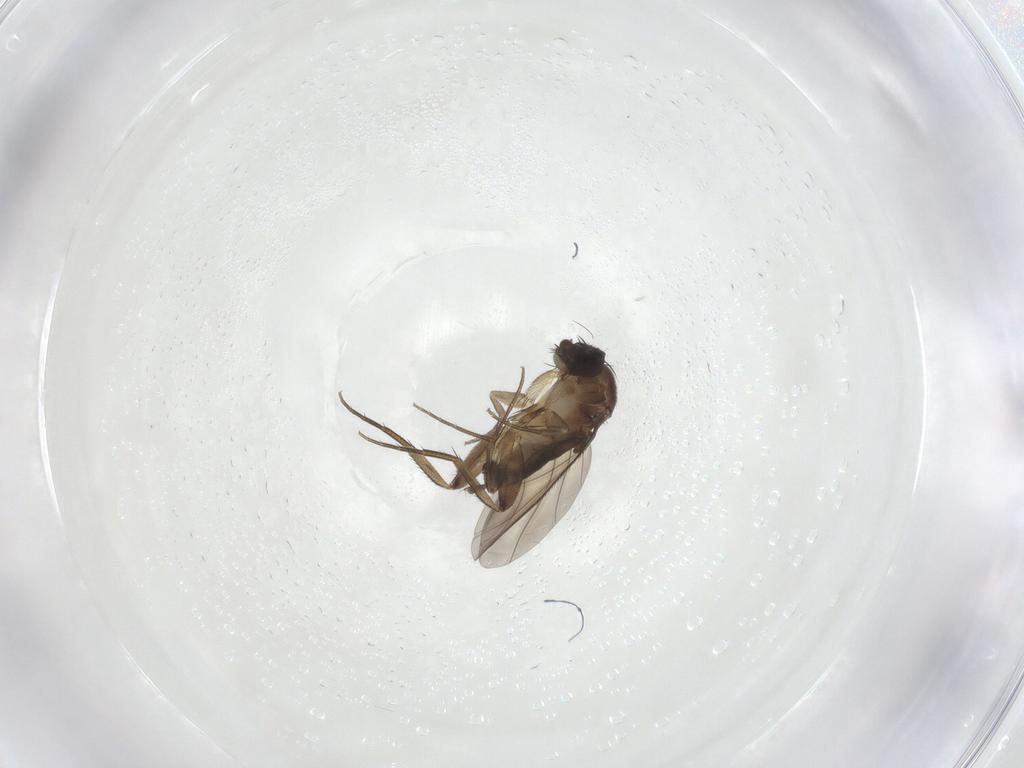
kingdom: Animalia
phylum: Arthropoda
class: Insecta
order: Diptera
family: Phoridae
